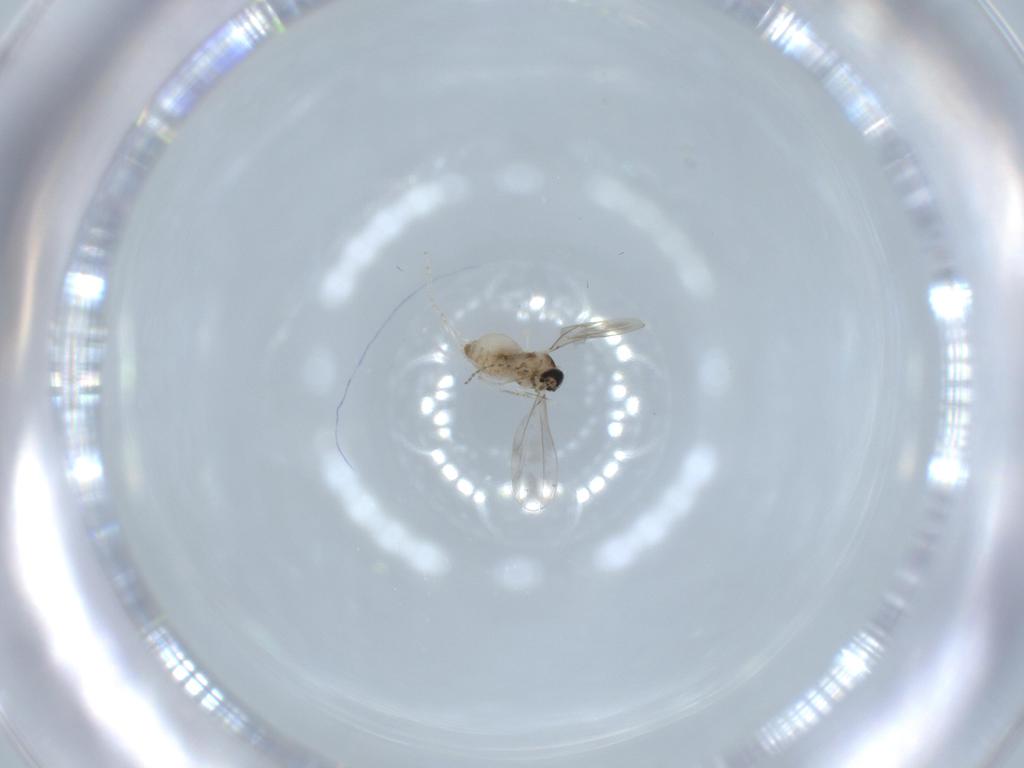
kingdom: Animalia
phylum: Arthropoda
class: Insecta
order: Diptera
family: Cecidomyiidae
